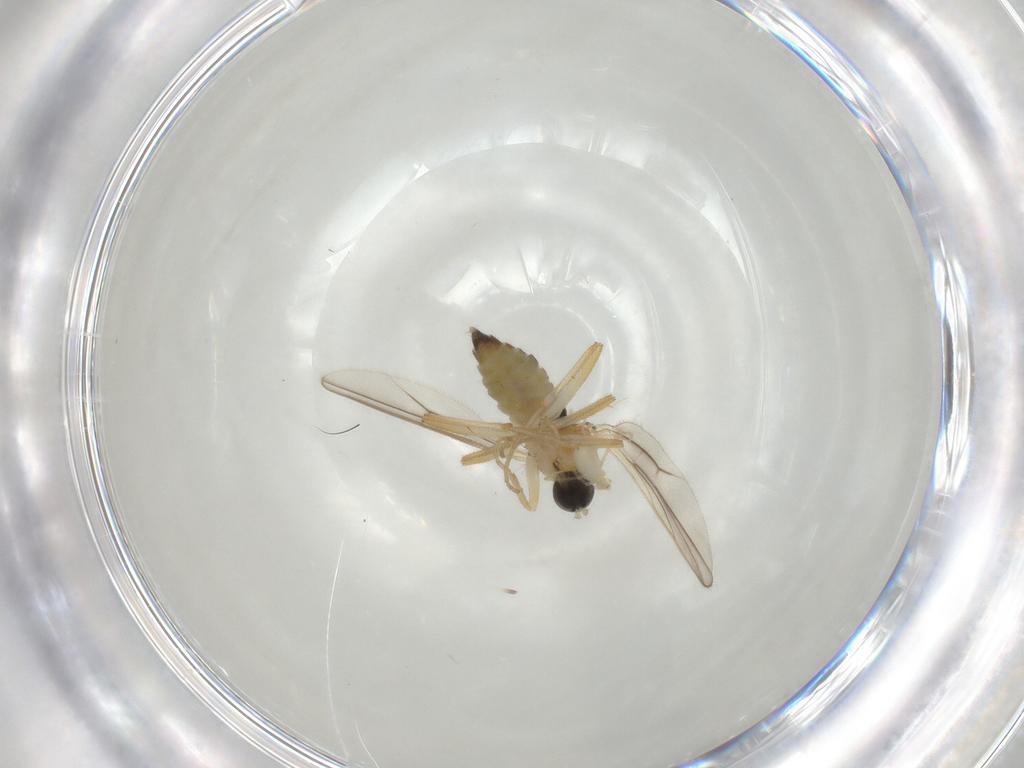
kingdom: Animalia
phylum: Arthropoda
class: Insecta
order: Diptera
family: Hybotidae
